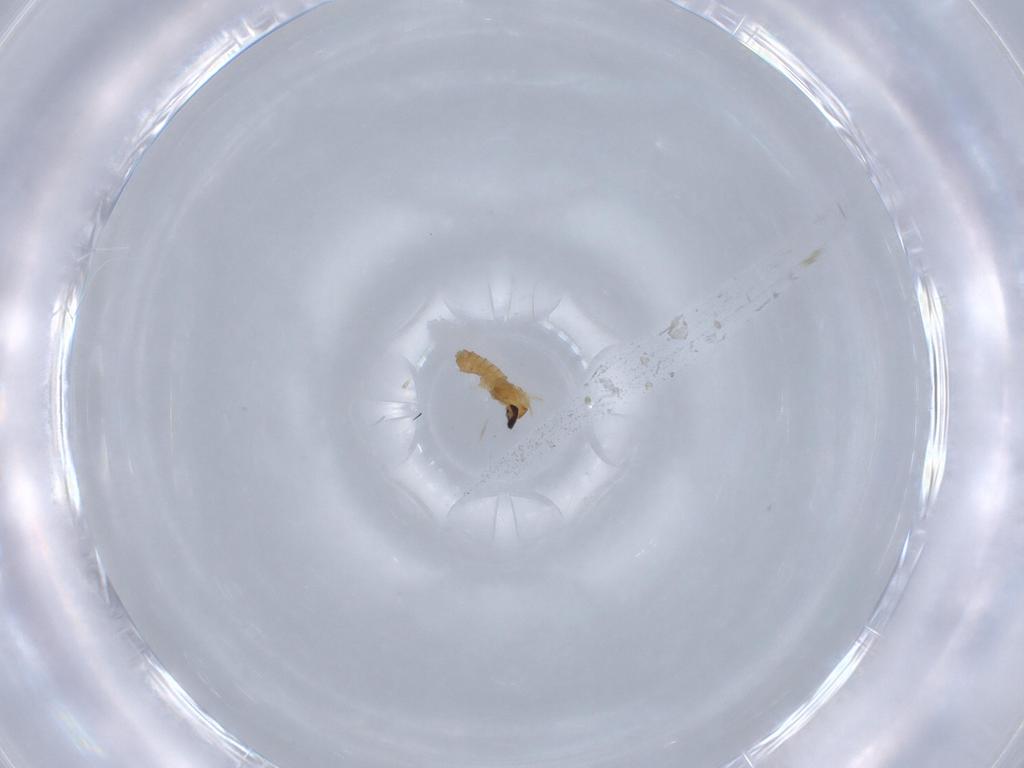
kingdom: Animalia
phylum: Arthropoda
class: Insecta
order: Diptera
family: Cecidomyiidae
